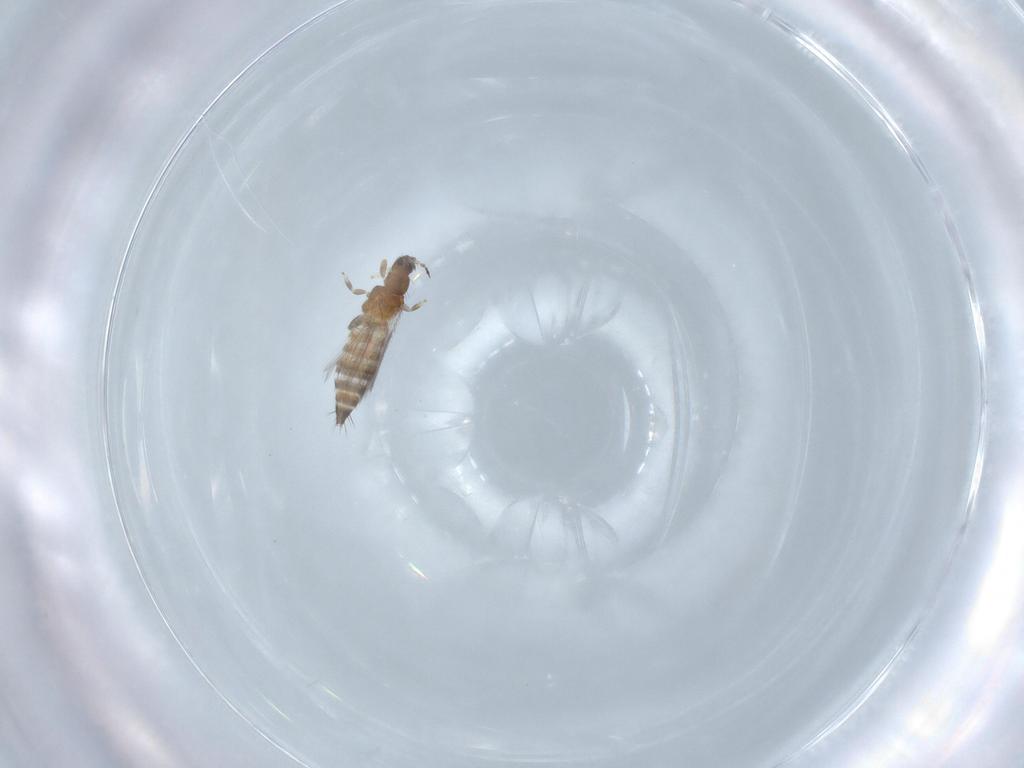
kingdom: Animalia
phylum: Arthropoda
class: Insecta
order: Thysanoptera
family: Thripidae
